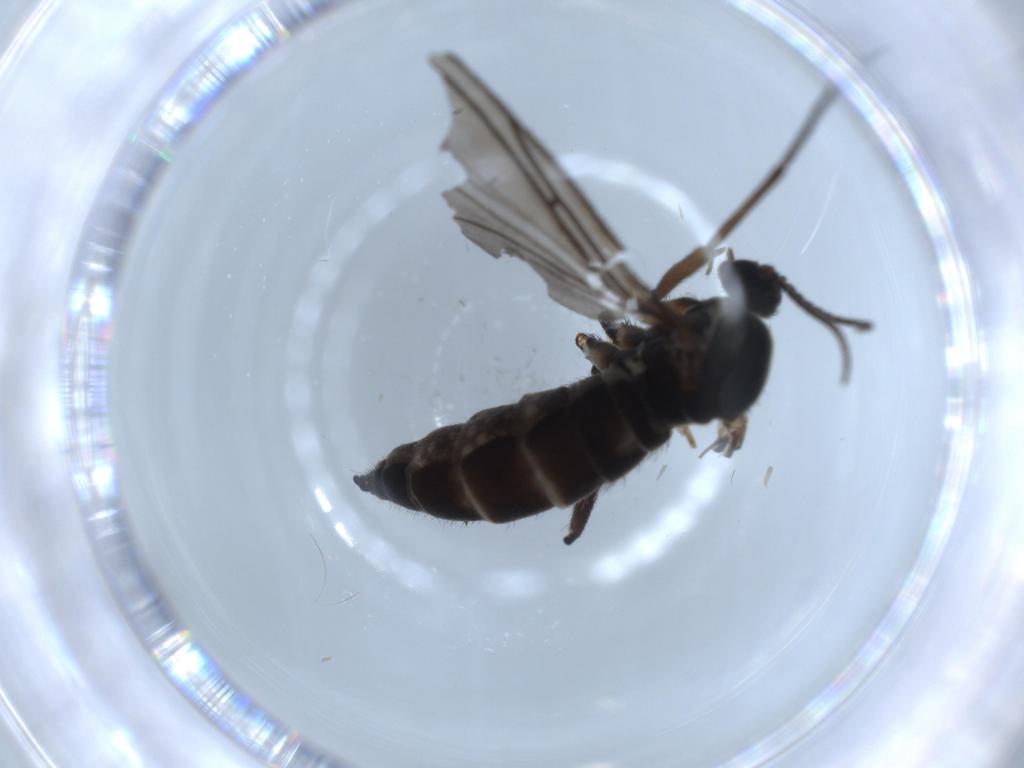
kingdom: Animalia
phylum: Arthropoda
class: Insecta
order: Diptera
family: Sciaridae
